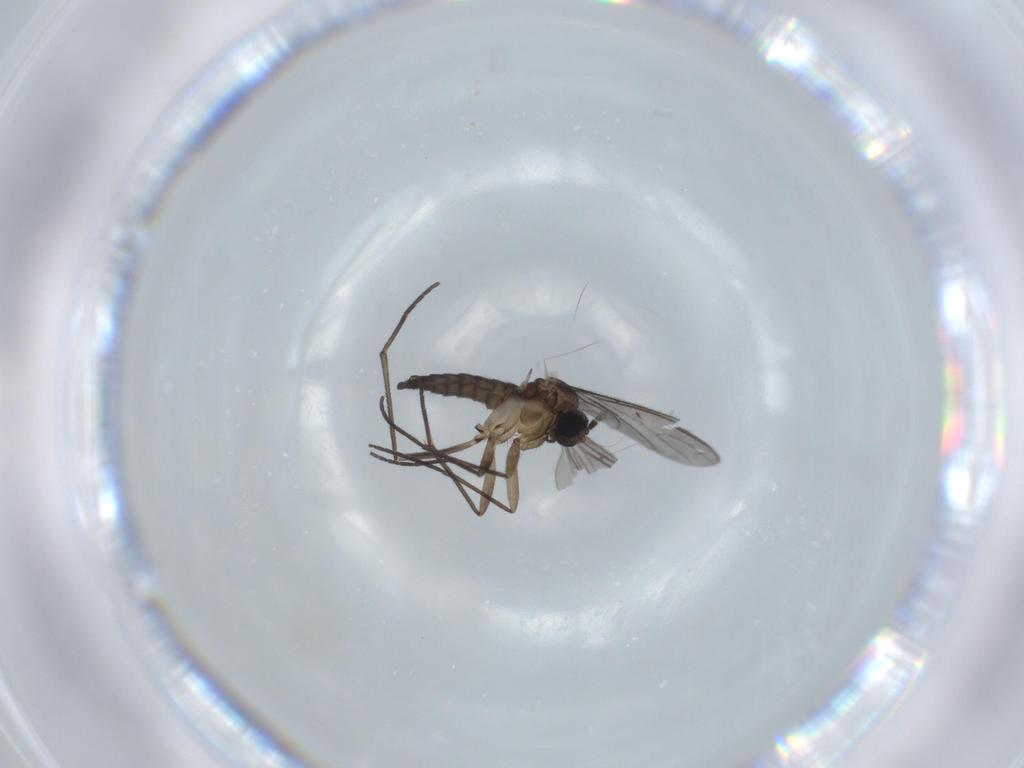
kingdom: Animalia
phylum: Arthropoda
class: Insecta
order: Diptera
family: Sciaridae
